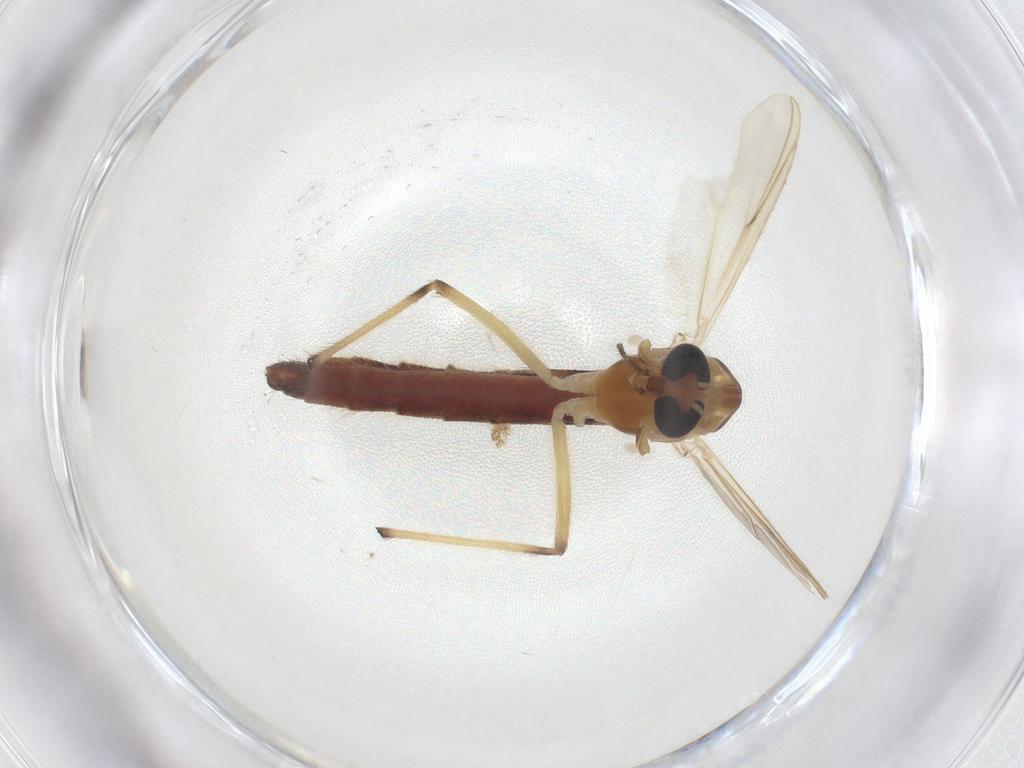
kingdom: Animalia
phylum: Arthropoda
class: Insecta
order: Diptera
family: Chironomidae
